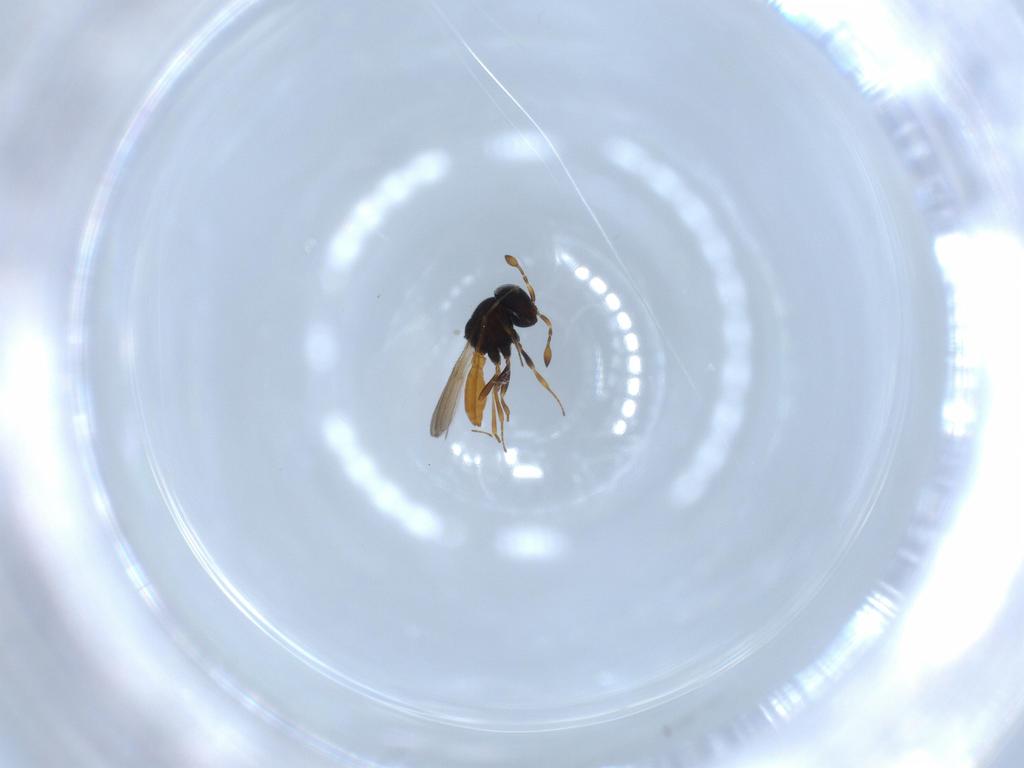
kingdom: Animalia
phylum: Arthropoda
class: Insecta
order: Hymenoptera
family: Scelionidae
